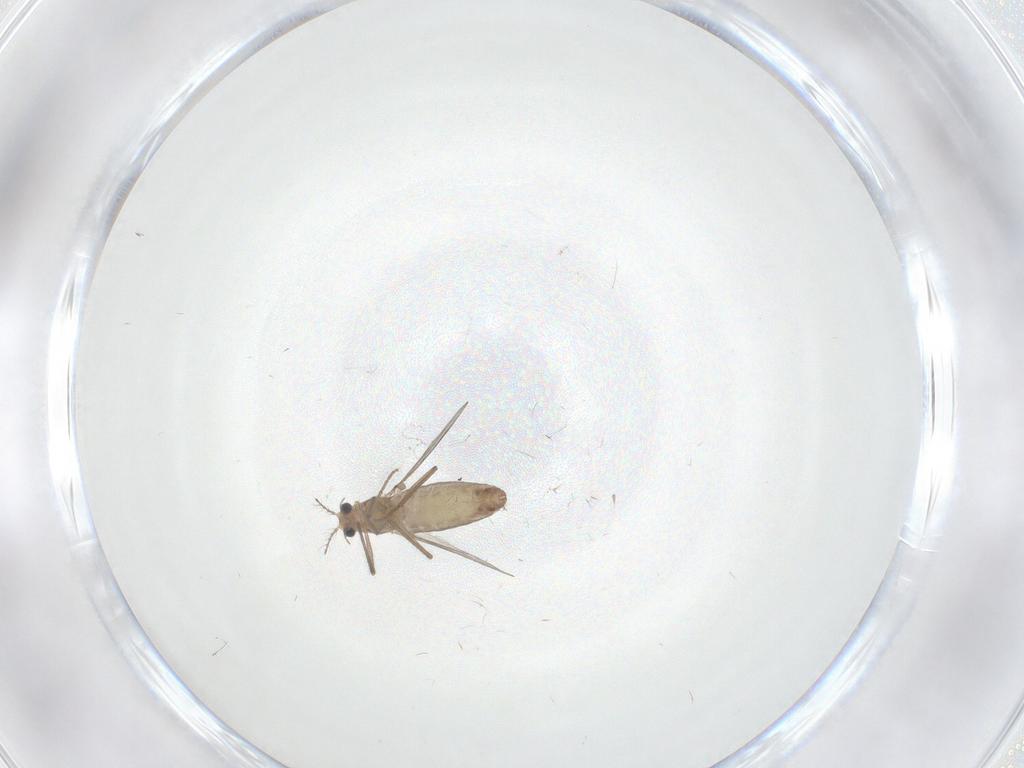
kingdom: Animalia
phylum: Arthropoda
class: Insecta
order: Diptera
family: Chironomidae
